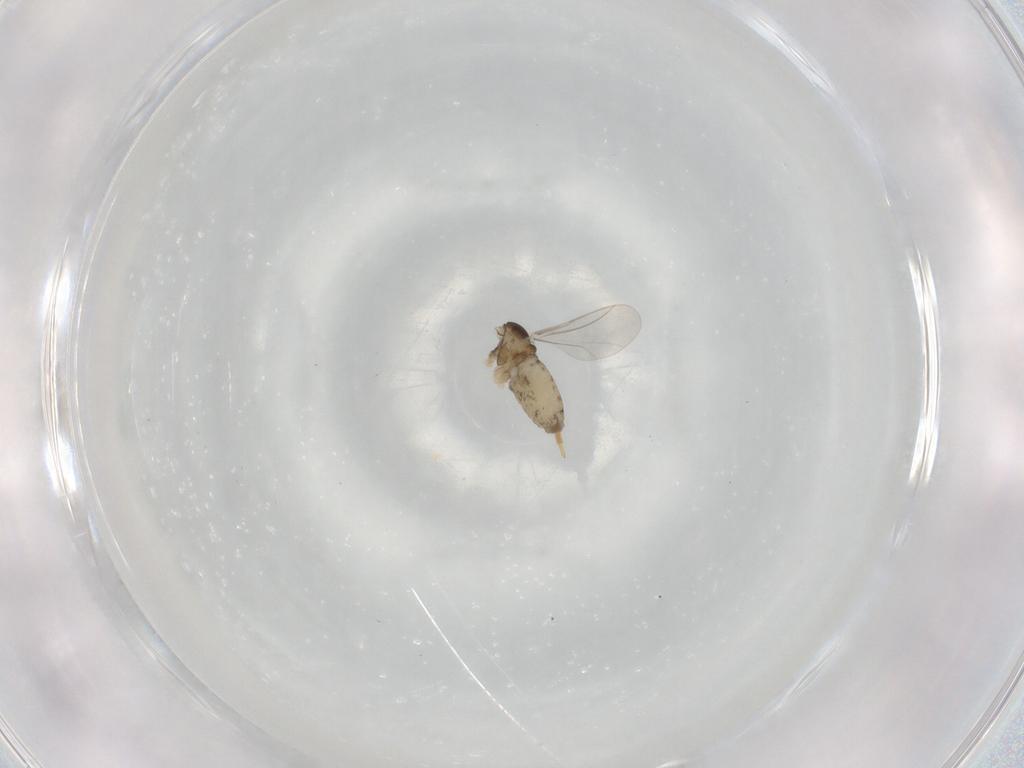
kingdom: Animalia
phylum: Arthropoda
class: Insecta
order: Diptera
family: Cecidomyiidae
